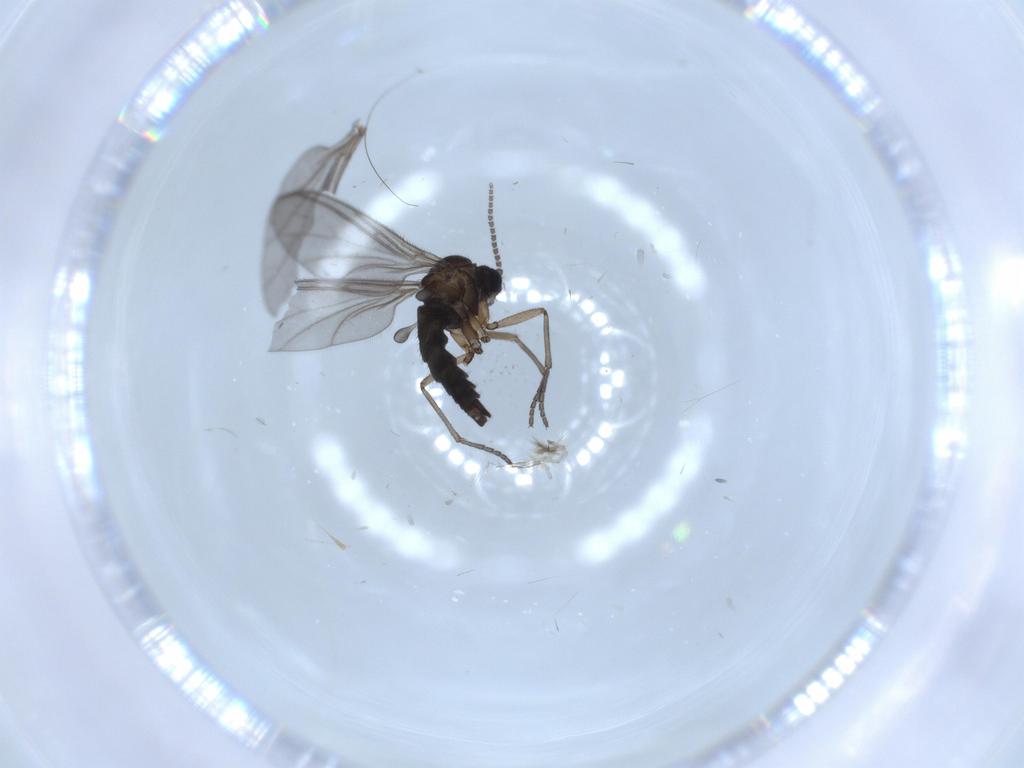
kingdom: Animalia
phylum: Arthropoda
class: Insecta
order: Diptera
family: Sciaridae
